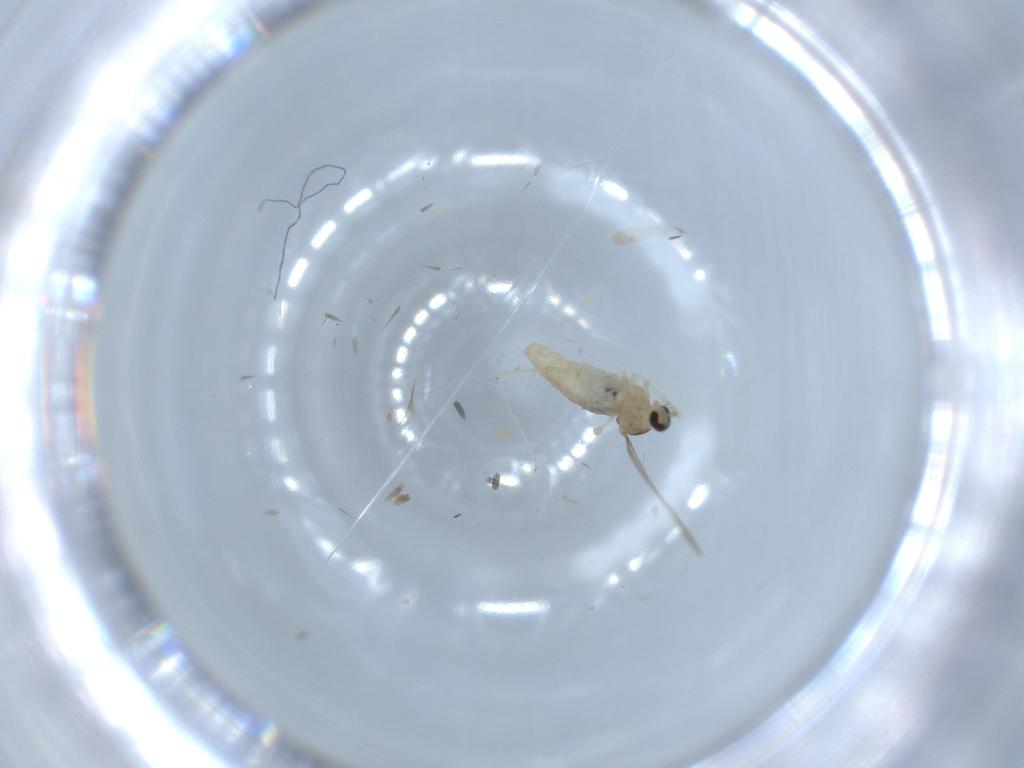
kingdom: Animalia
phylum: Arthropoda
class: Insecta
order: Diptera
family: Cecidomyiidae
